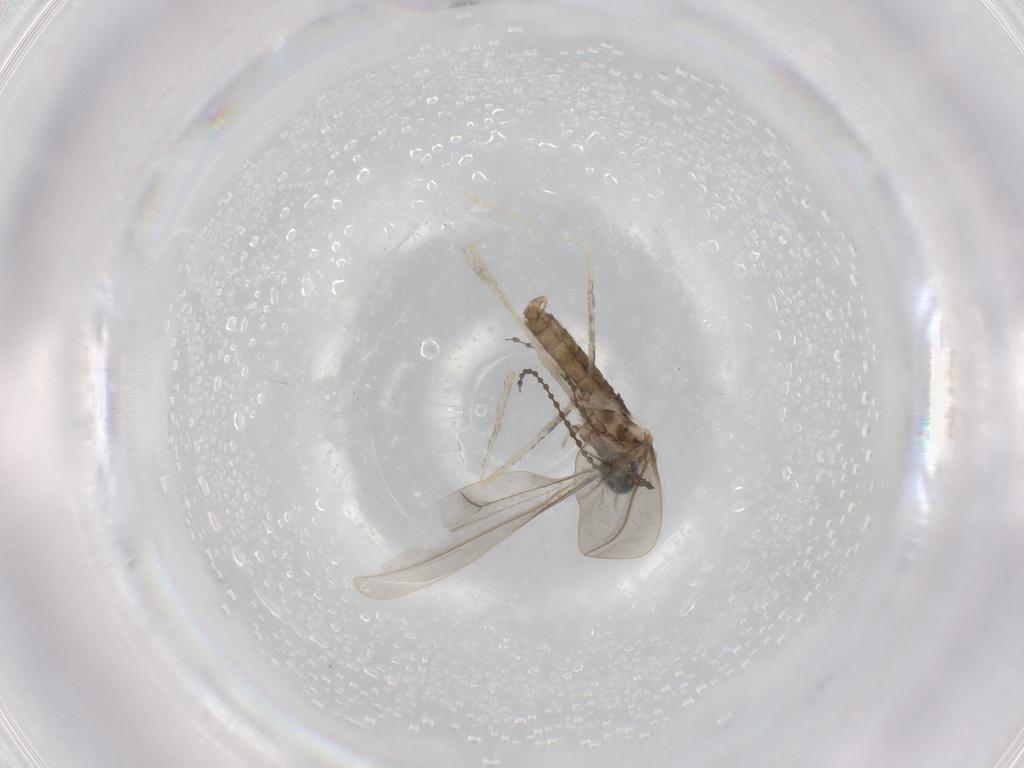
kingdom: Animalia
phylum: Arthropoda
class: Insecta
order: Diptera
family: Cecidomyiidae
